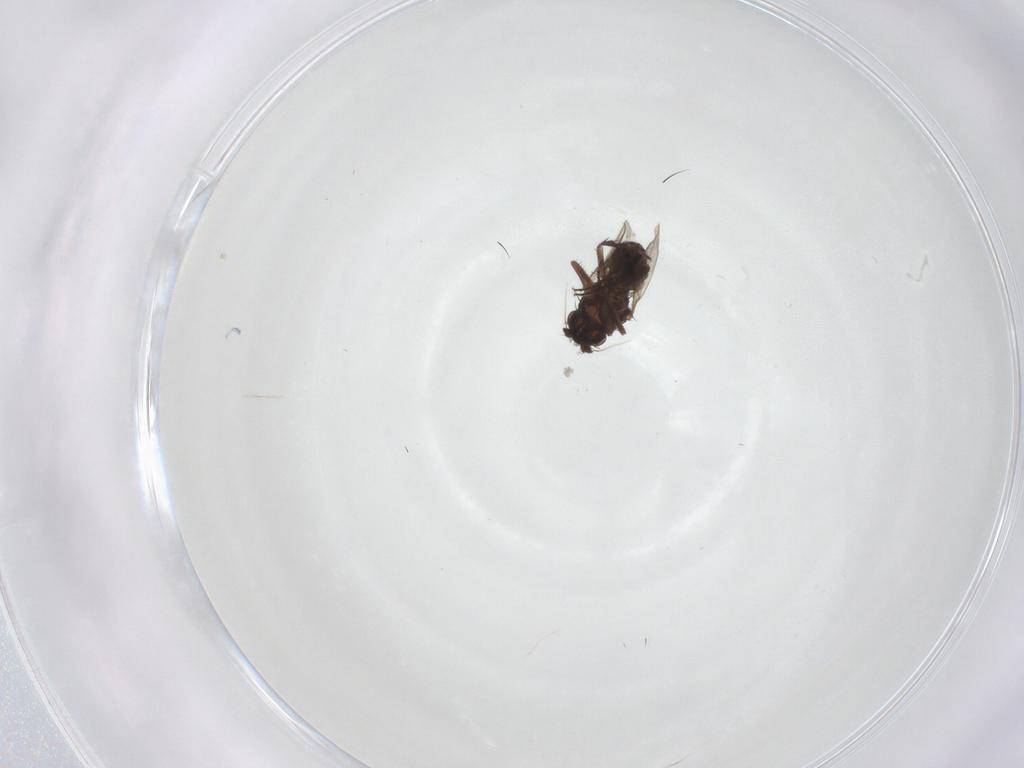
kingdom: Animalia
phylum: Arthropoda
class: Insecta
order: Diptera
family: Sphaeroceridae
